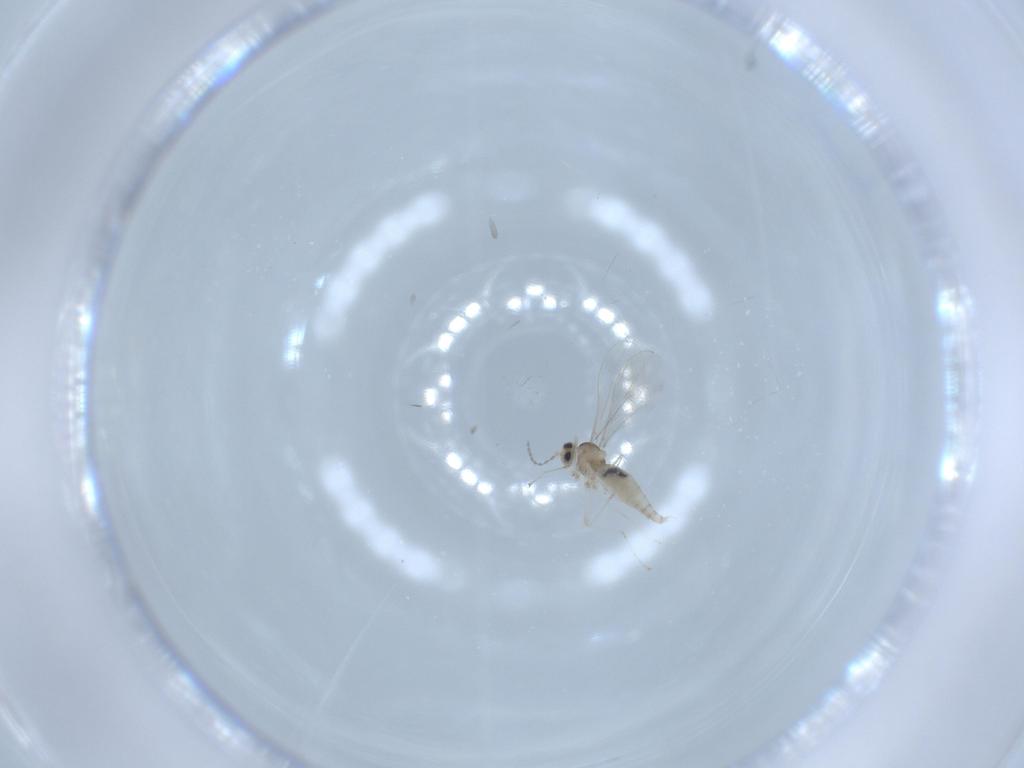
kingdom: Animalia
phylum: Arthropoda
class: Insecta
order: Diptera
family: Cecidomyiidae
